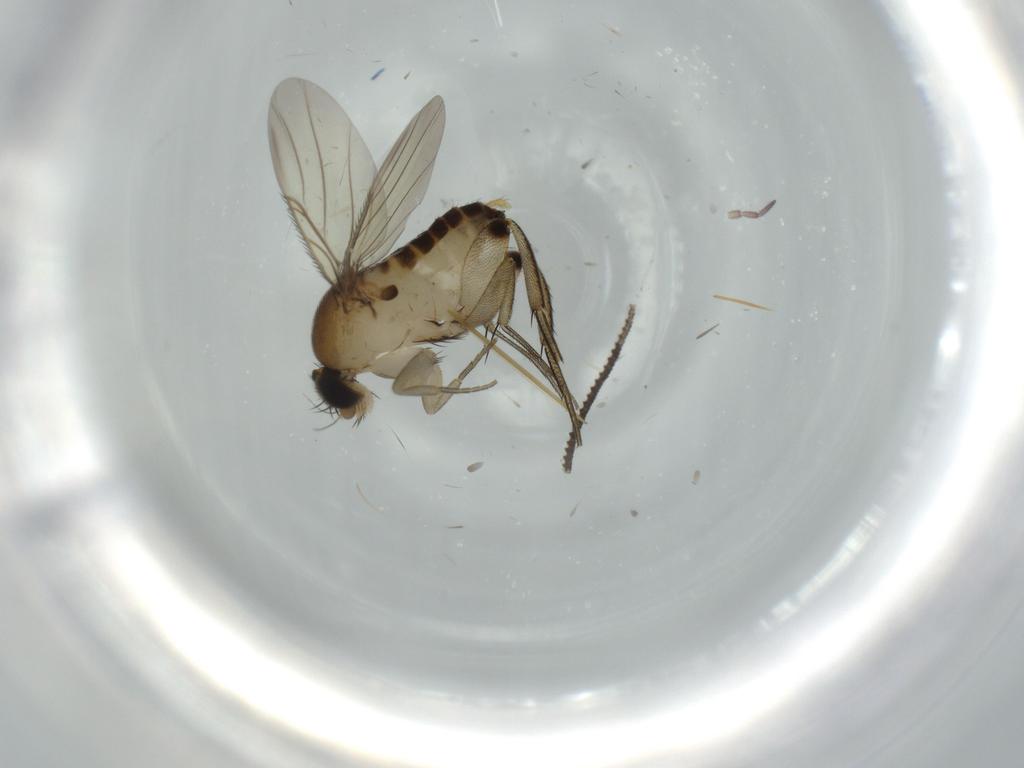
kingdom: Animalia
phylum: Arthropoda
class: Insecta
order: Diptera
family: Phoridae
